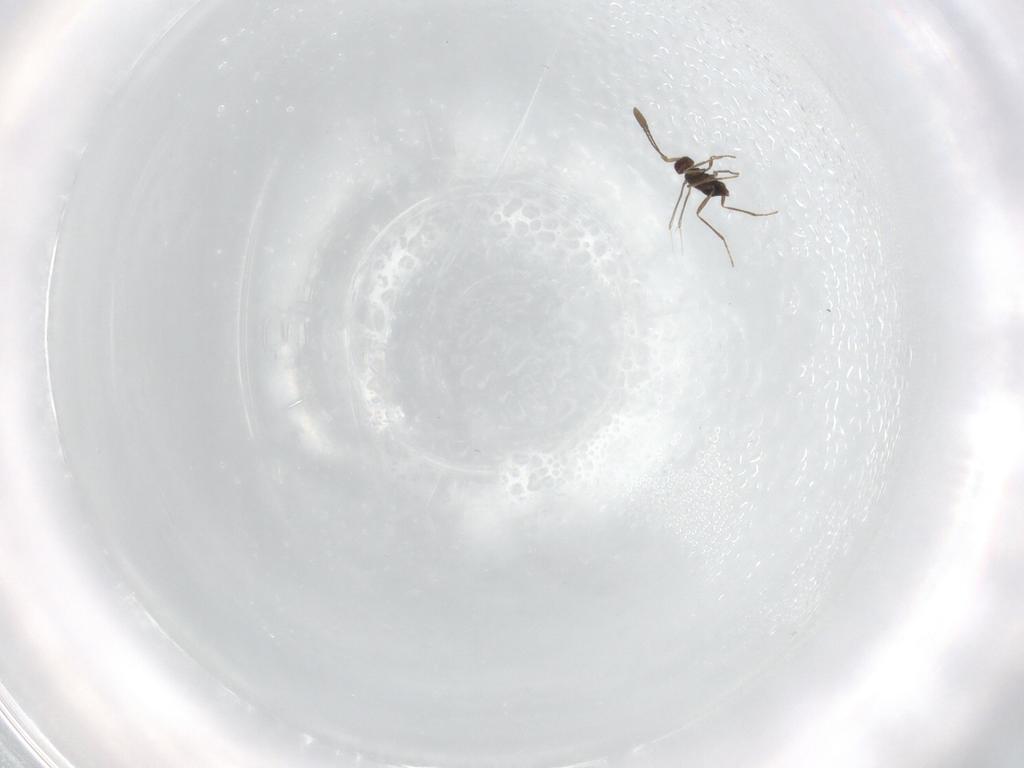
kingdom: Animalia
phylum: Arthropoda
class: Insecta
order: Hymenoptera
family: Mymaridae
